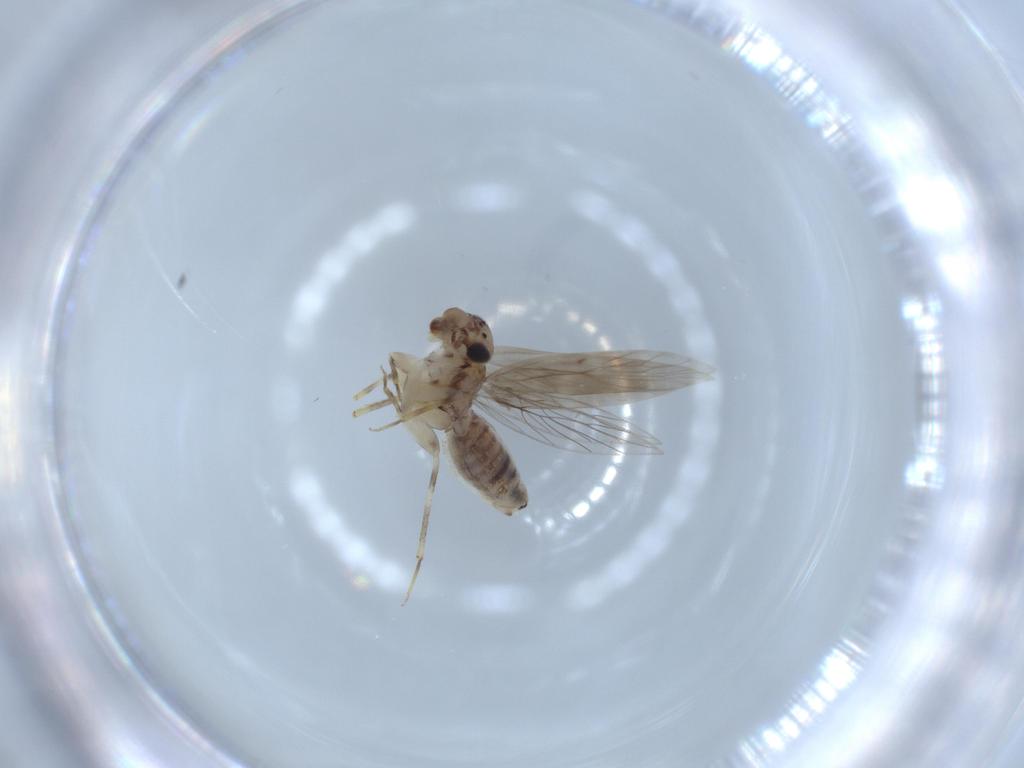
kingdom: Animalia
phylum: Arthropoda
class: Insecta
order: Psocodea
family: Lepidopsocidae
